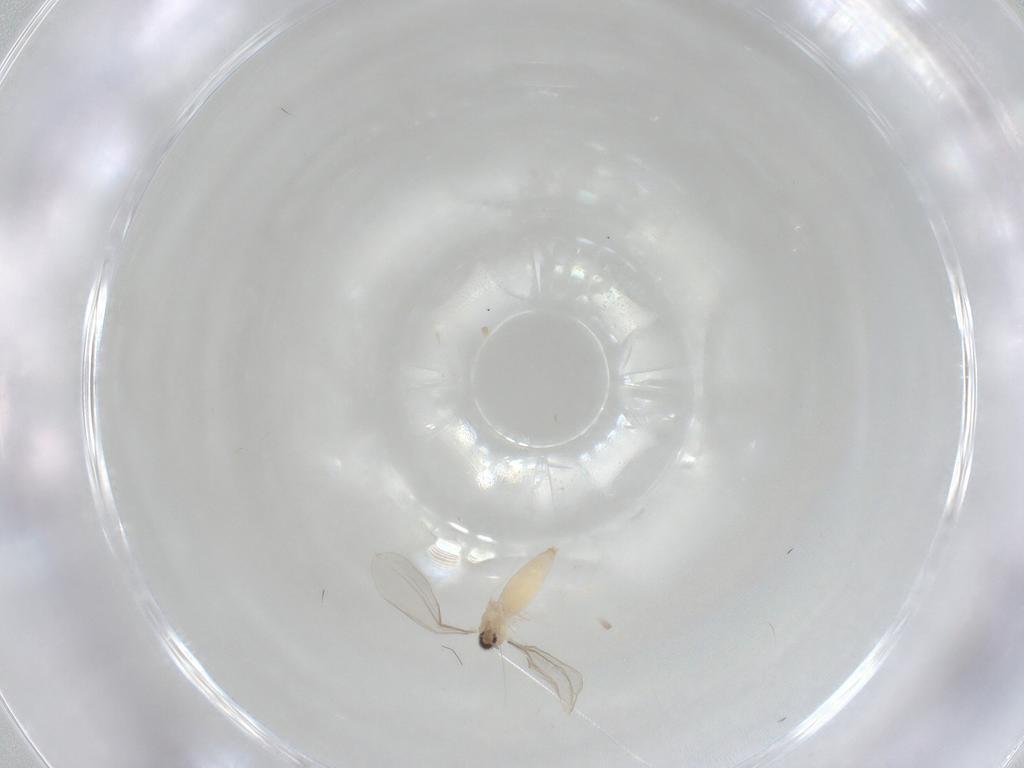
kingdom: Animalia
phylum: Arthropoda
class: Insecta
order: Diptera
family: Cecidomyiidae
